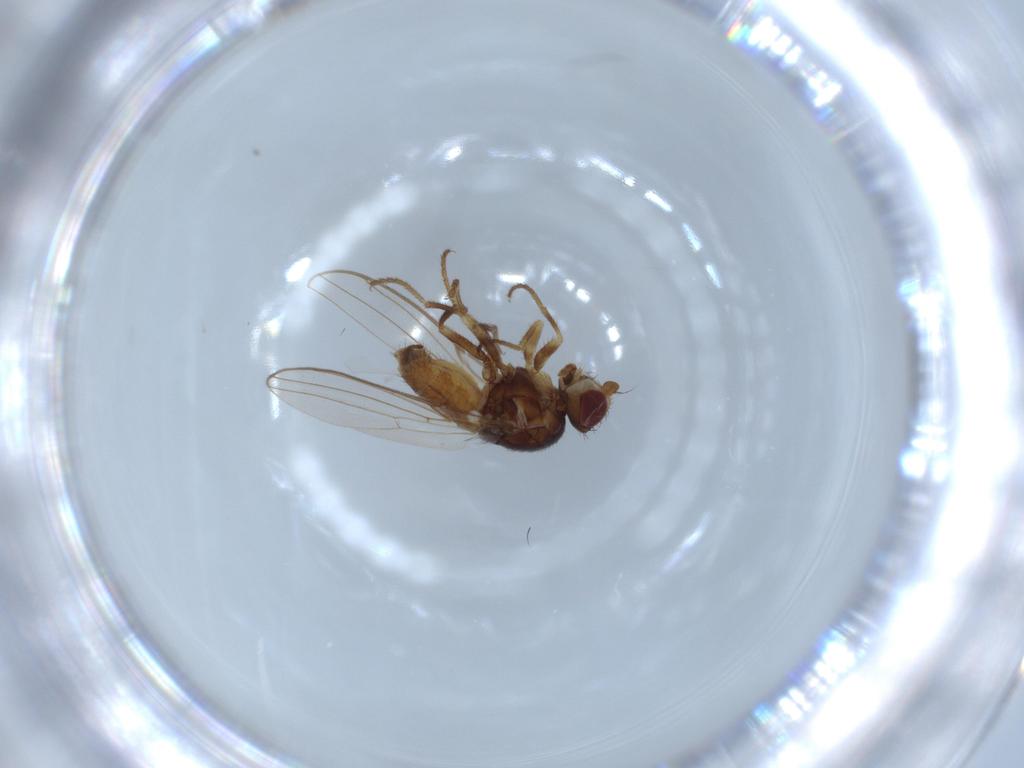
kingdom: Animalia
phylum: Arthropoda
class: Insecta
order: Diptera
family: Chloropidae
